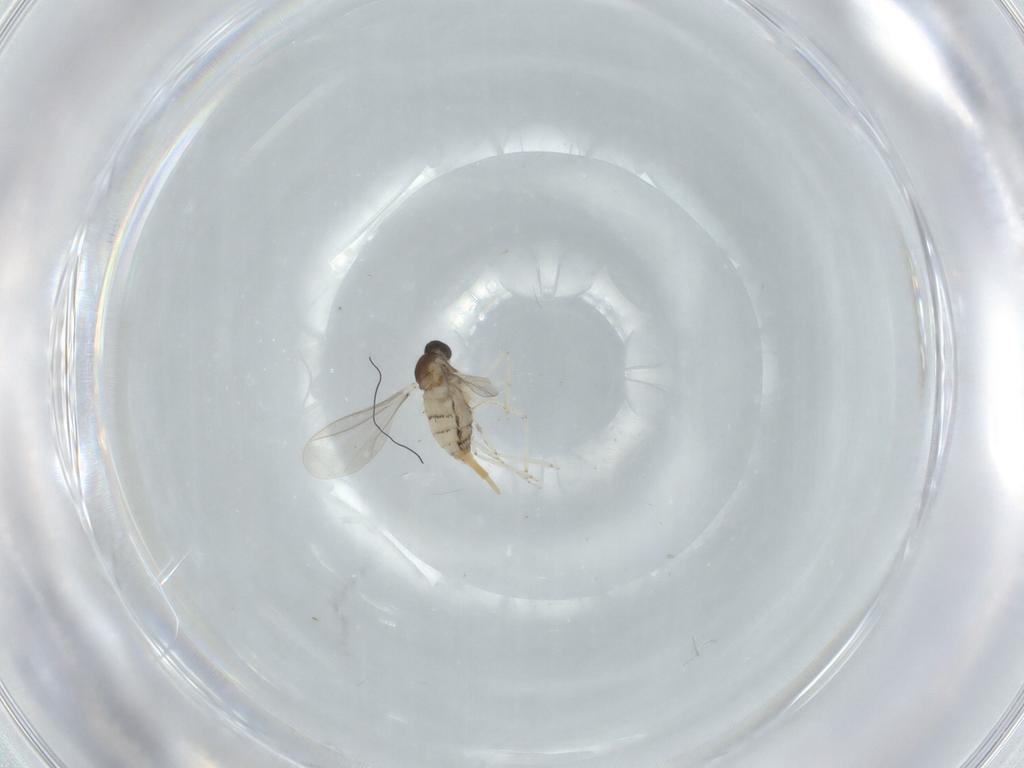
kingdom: Animalia
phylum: Arthropoda
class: Insecta
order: Diptera
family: Cecidomyiidae
